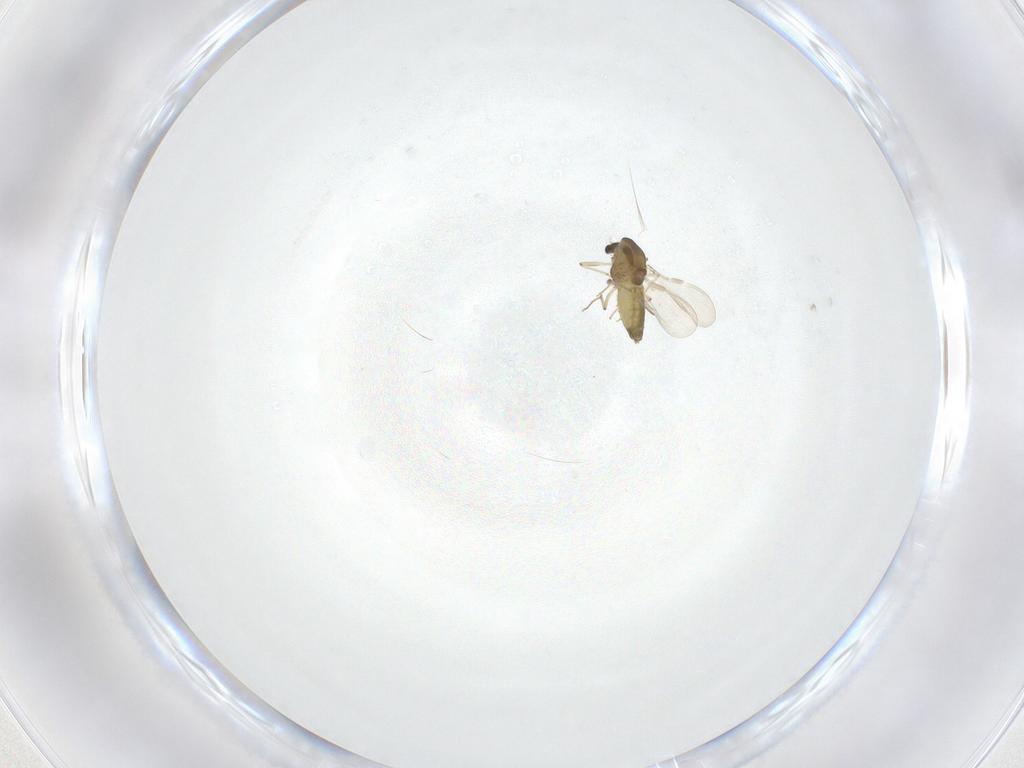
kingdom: Animalia
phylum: Arthropoda
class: Insecta
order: Diptera
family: Chironomidae
